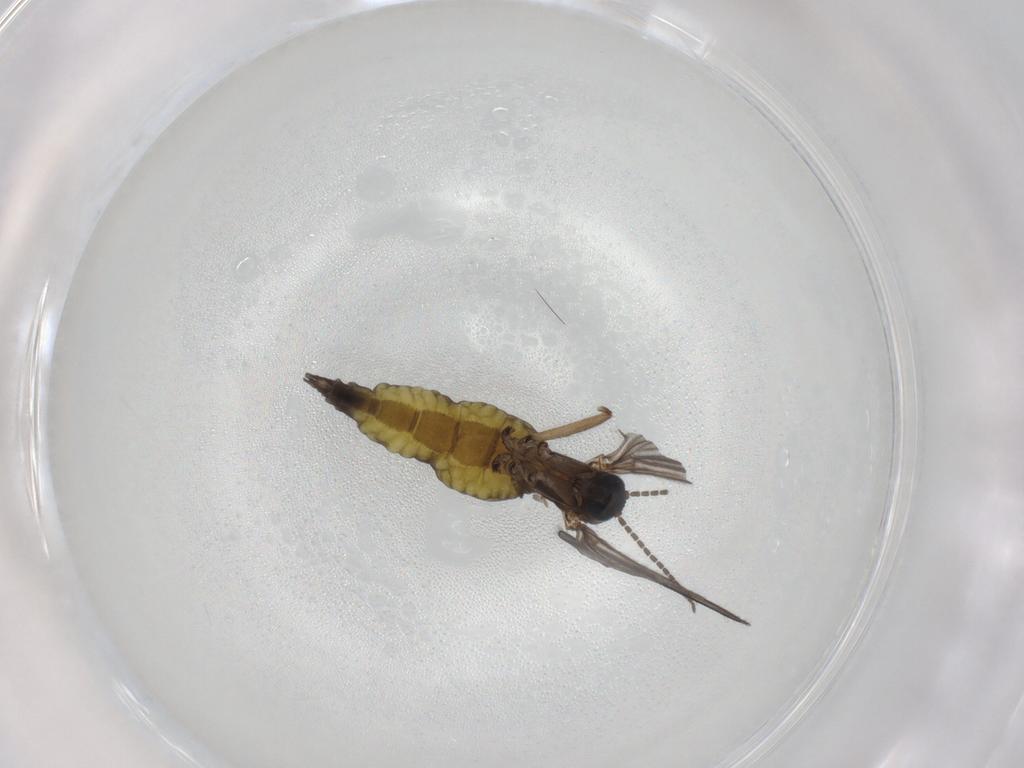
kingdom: Animalia
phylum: Arthropoda
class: Insecta
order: Diptera
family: Sciaridae
